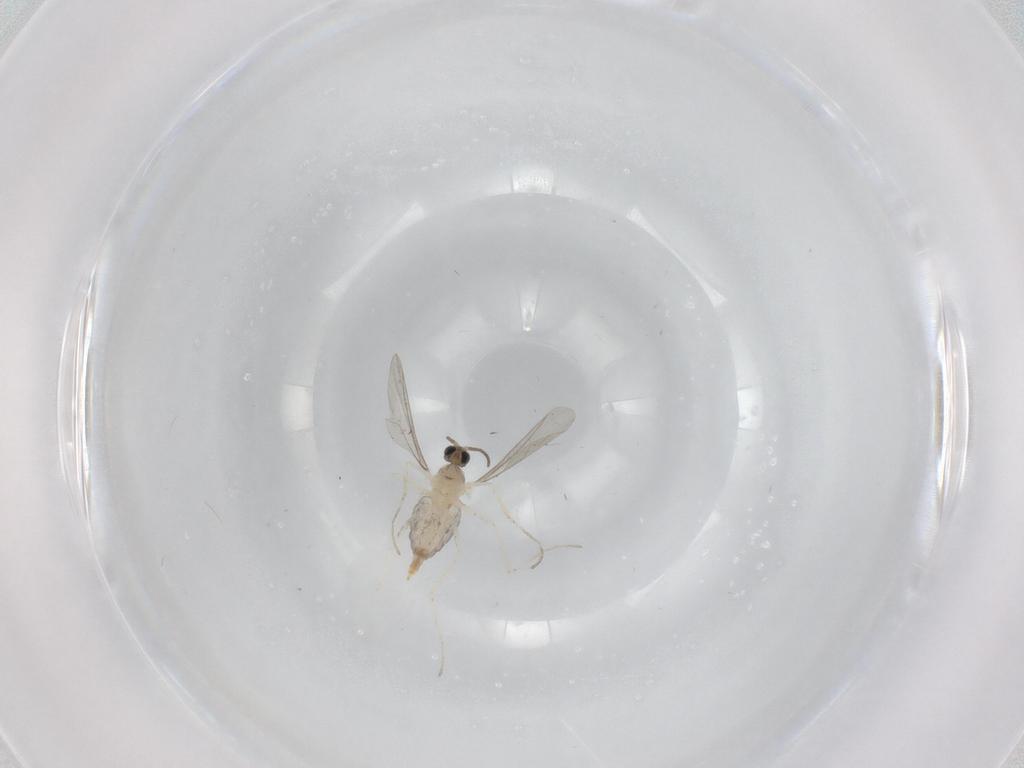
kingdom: Animalia
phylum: Arthropoda
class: Insecta
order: Diptera
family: Cecidomyiidae
